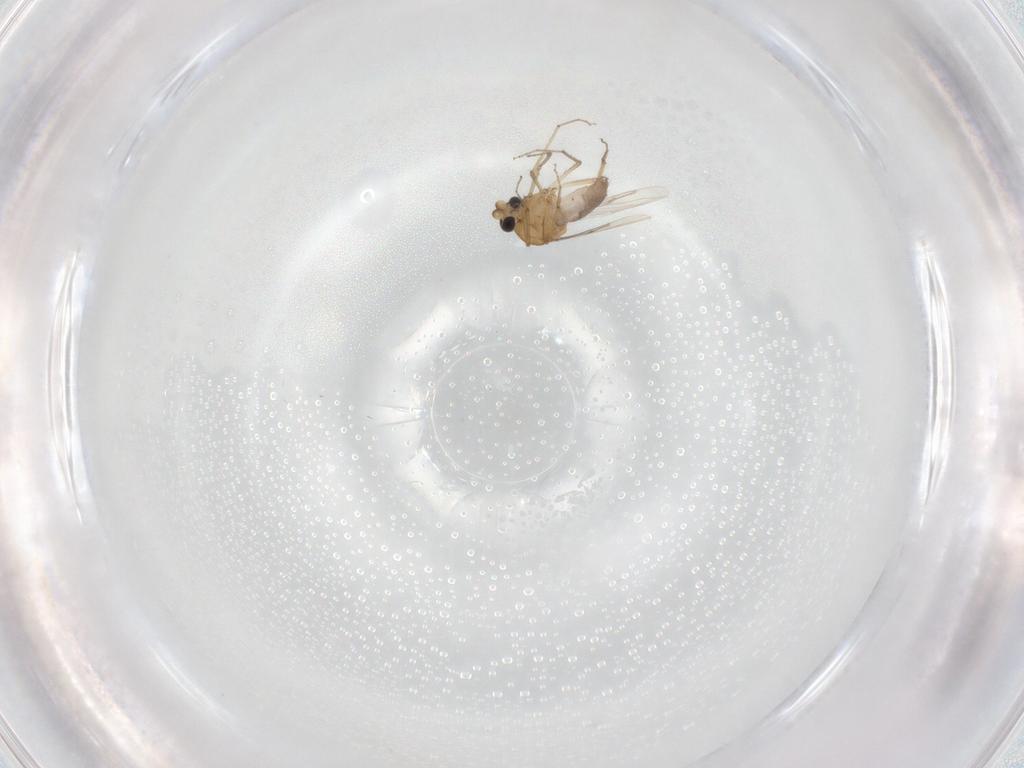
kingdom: Animalia
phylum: Arthropoda
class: Insecta
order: Diptera
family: Ceratopogonidae
